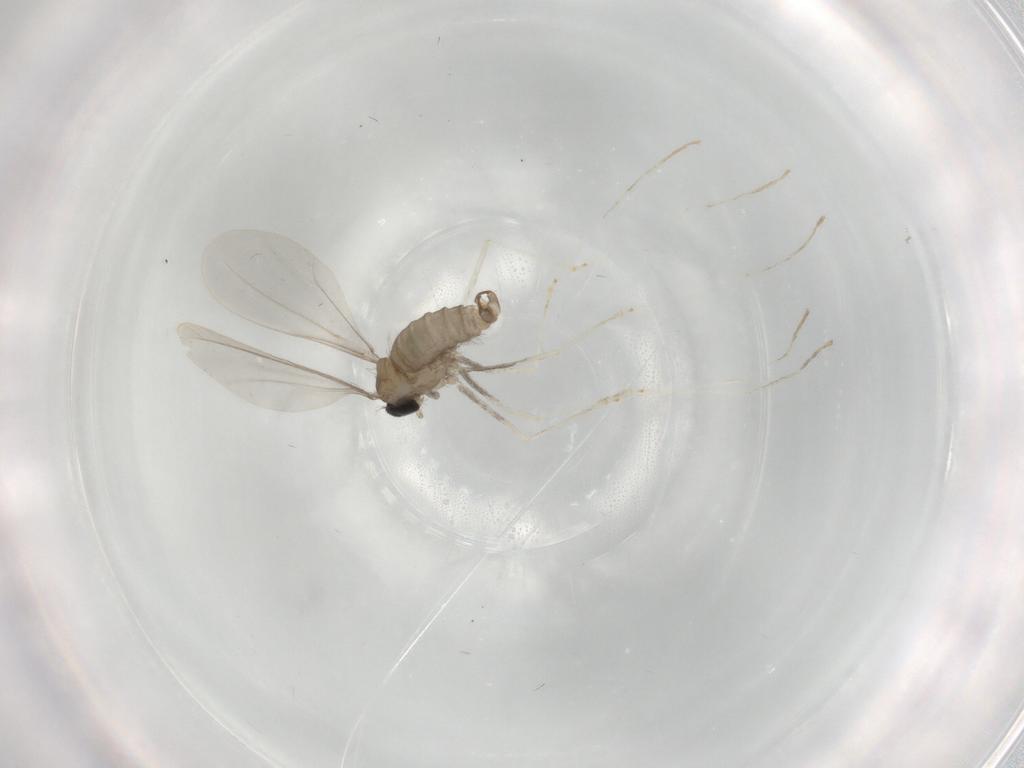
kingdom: Animalia
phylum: Arthropoda
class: Insecta
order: Diptera
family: Cecidomyiidae
